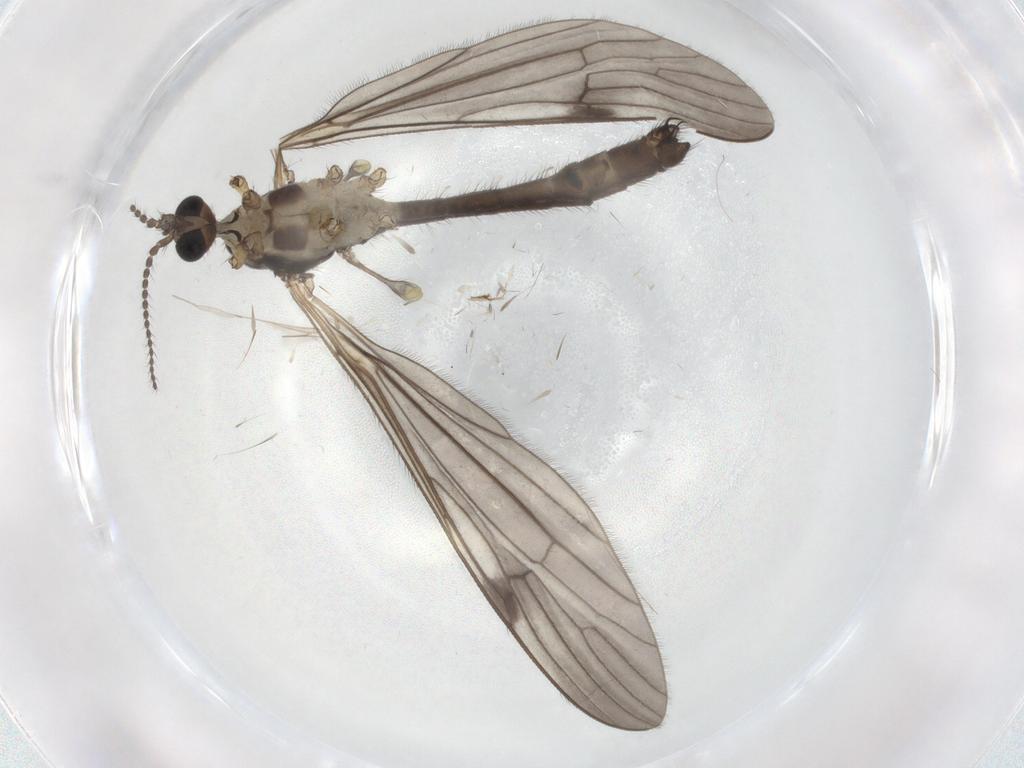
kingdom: Animalia
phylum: Arthropoda
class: Insecta
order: Diptera
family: Limoniidae
